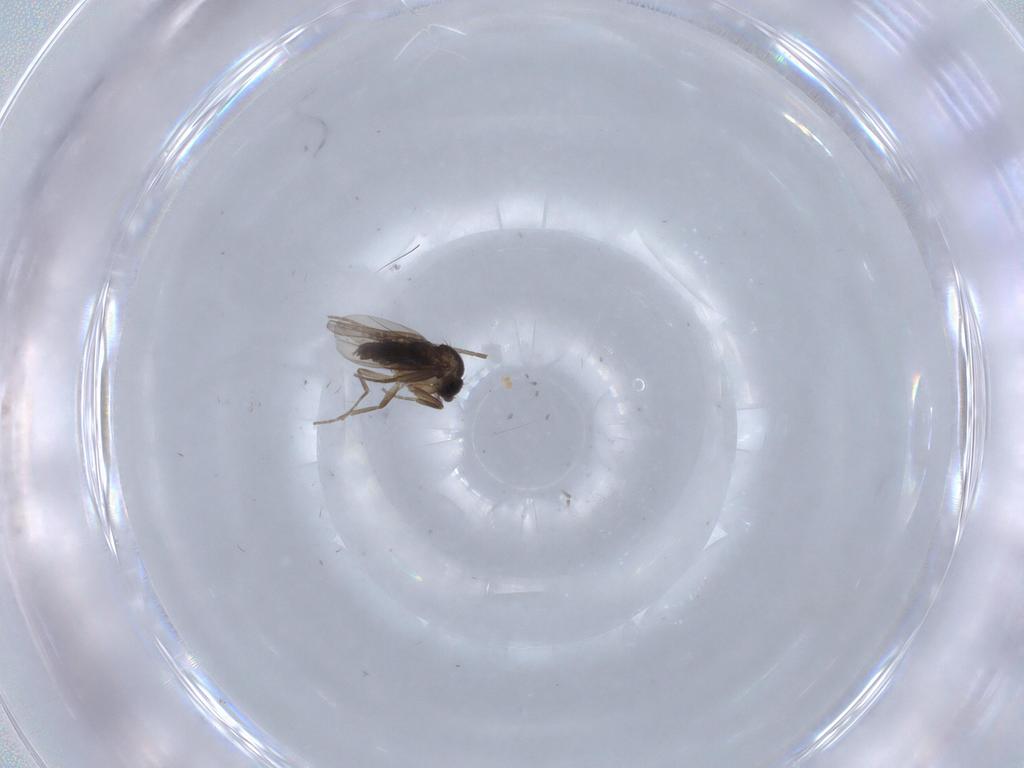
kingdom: Animalia
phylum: Arthropoda
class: Insecta
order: Diptera
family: Phoridae
